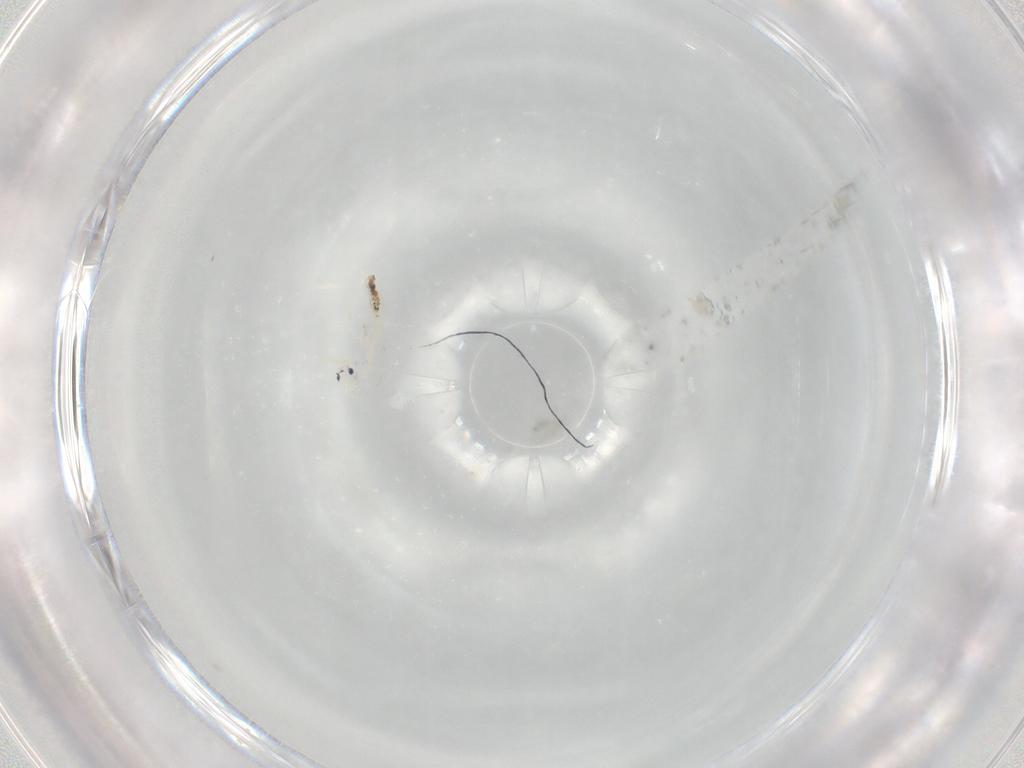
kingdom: Animalia
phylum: Arthropoda
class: Collembola
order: Entomobryomorpha
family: Entomobryidae
